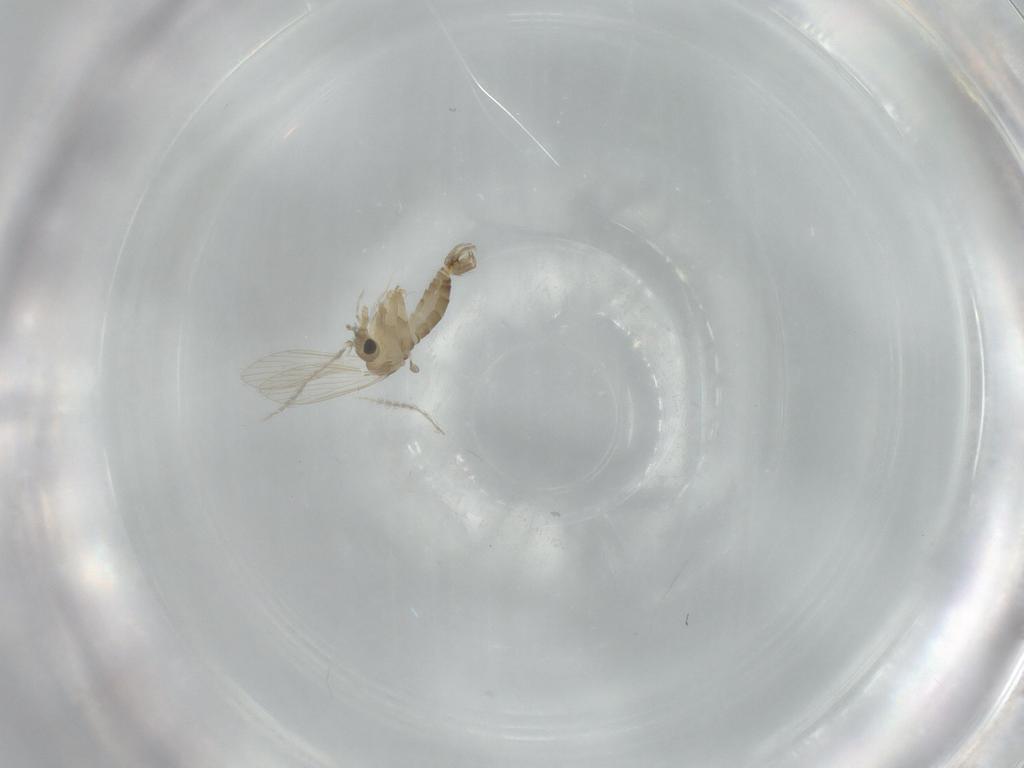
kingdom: Animalia
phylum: Arthropoda
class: Insecta
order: Diptera
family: Psychodidae
